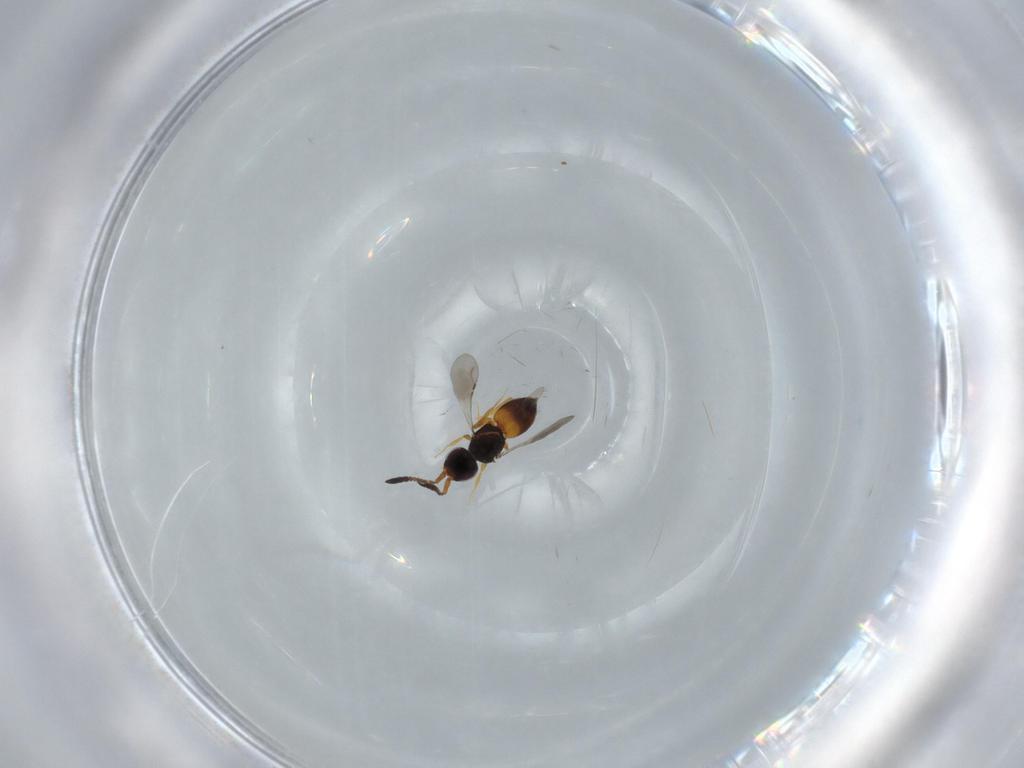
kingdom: Animalia
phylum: Arthropoda
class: Insecta
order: Hymenoptera
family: Ceraphronidae
